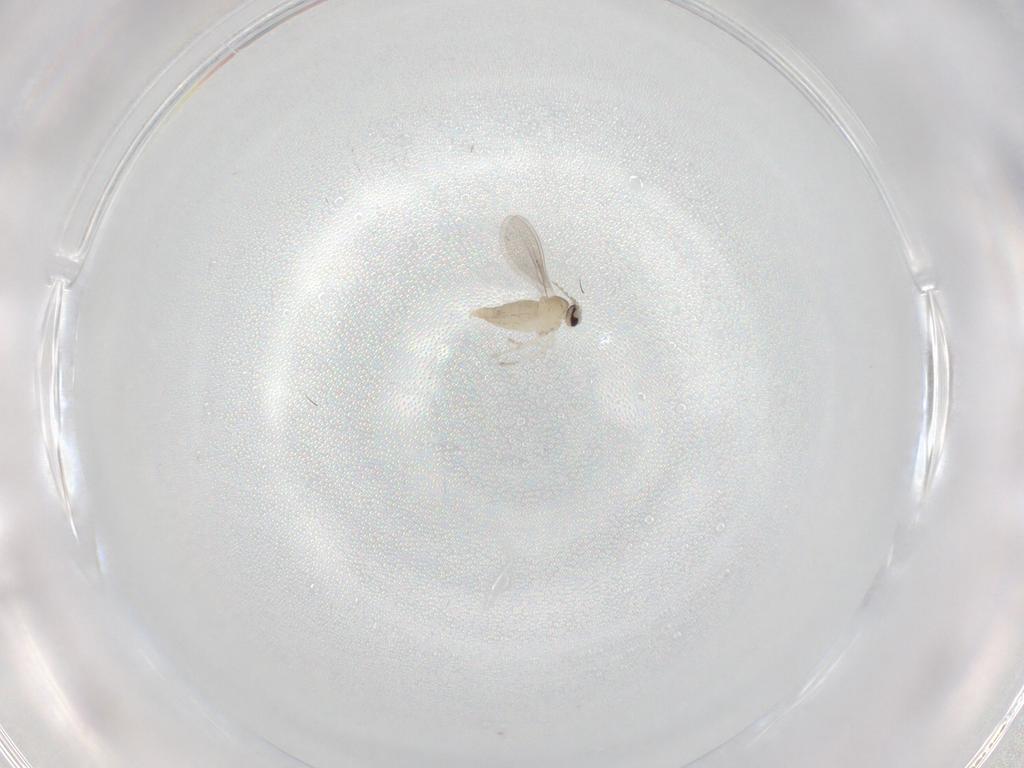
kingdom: Animalia
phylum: Arthropoda
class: Insecta
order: Diptera
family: Cecidomyiidae
